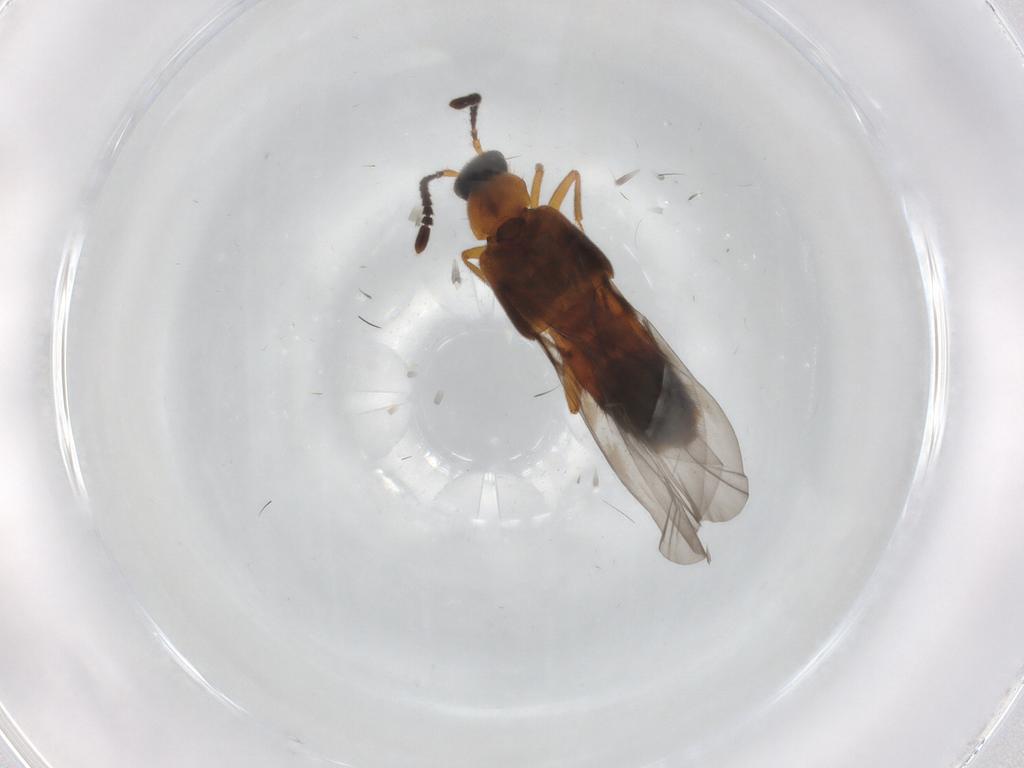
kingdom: Animalia
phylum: Arthropoda
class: Insecta
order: Coleoptera
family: Staphylinidae
